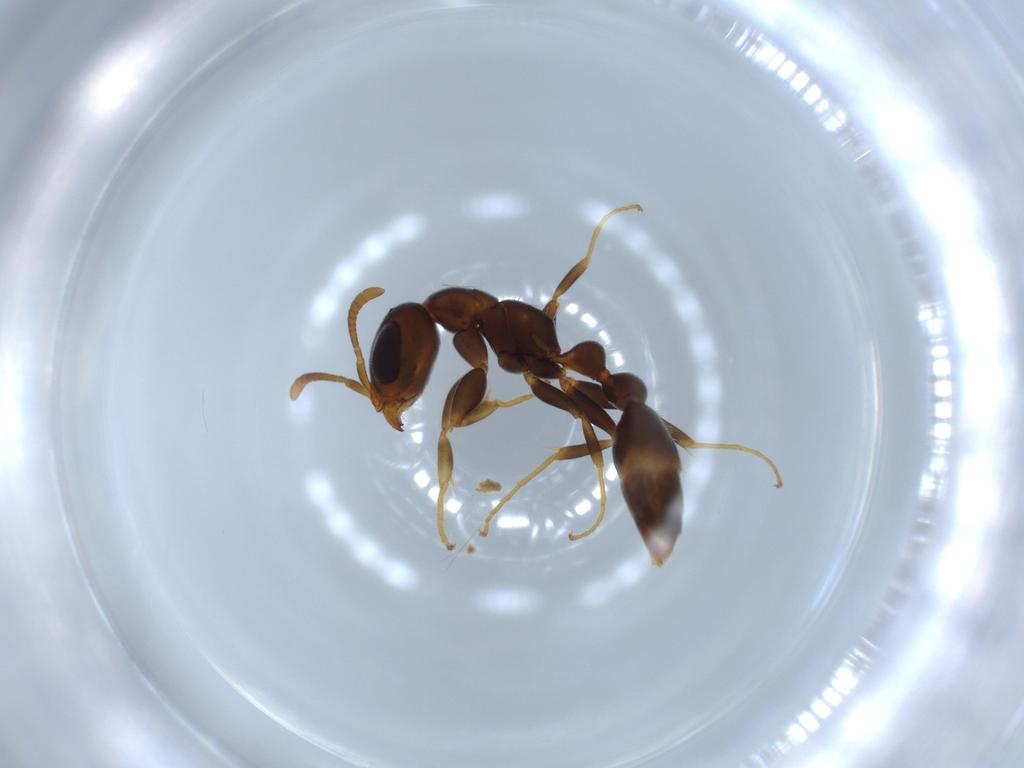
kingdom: Animalia
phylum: Arthropoda
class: Insecta
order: Hymenoptera
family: Formicidae
